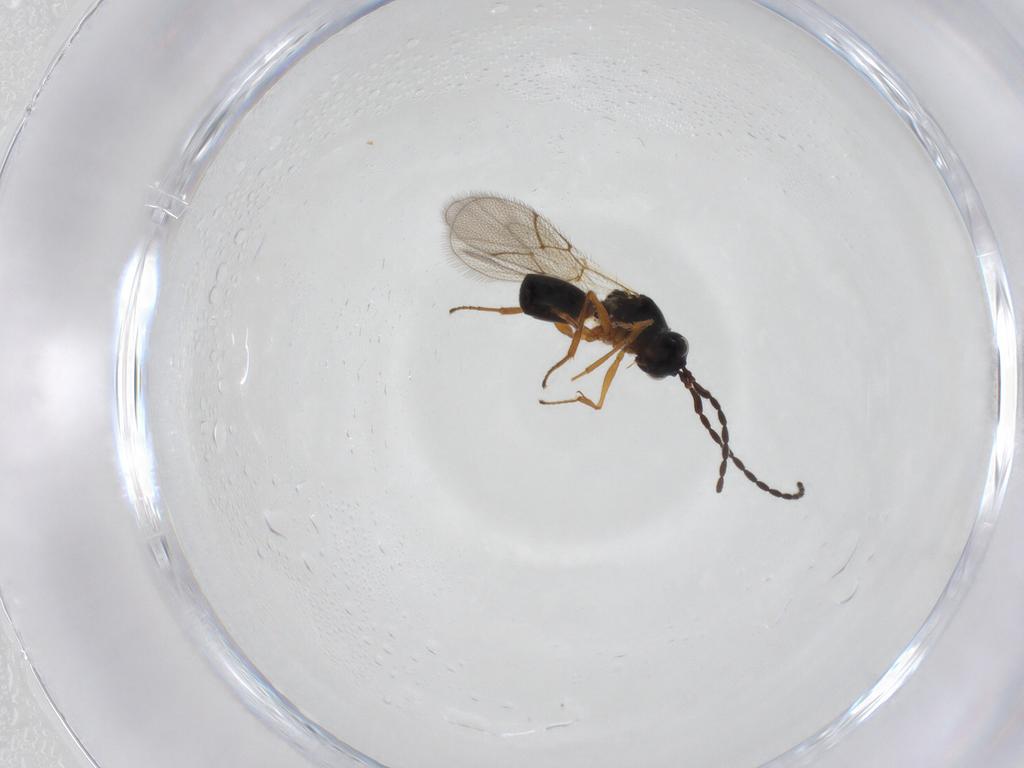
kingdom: Animalia
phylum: Arthropoda
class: Insecta
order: Hymenoptera
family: Figitidae
